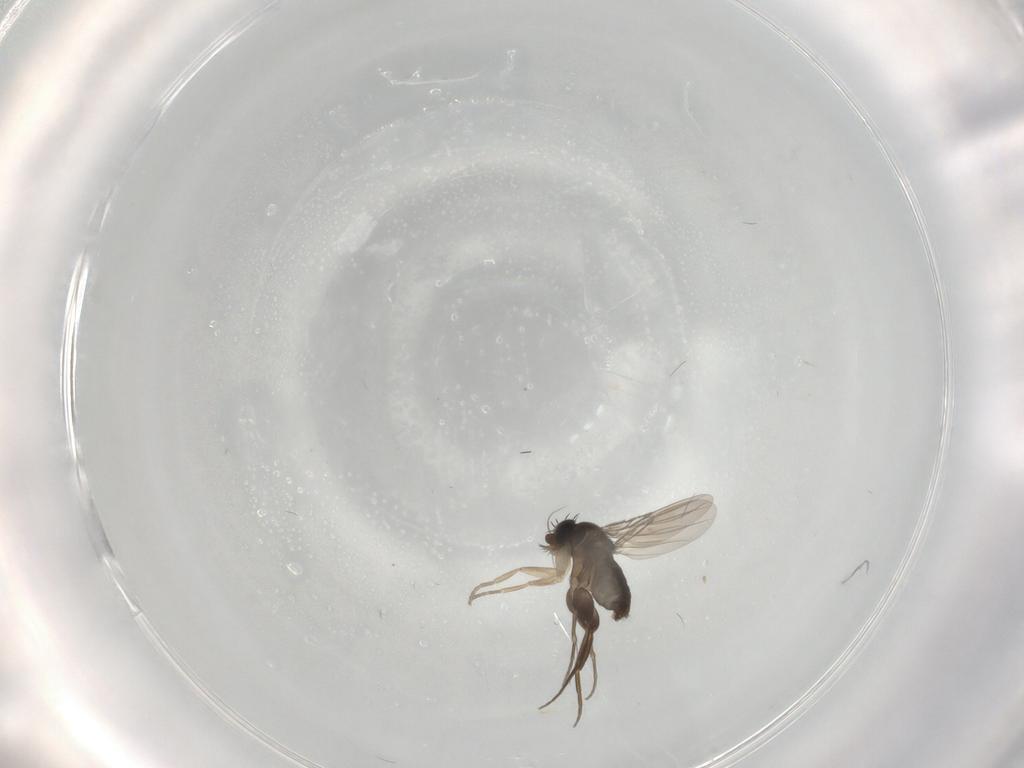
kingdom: Animalia
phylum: Arthropoda
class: Insecta
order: Diptera
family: Phoridae
